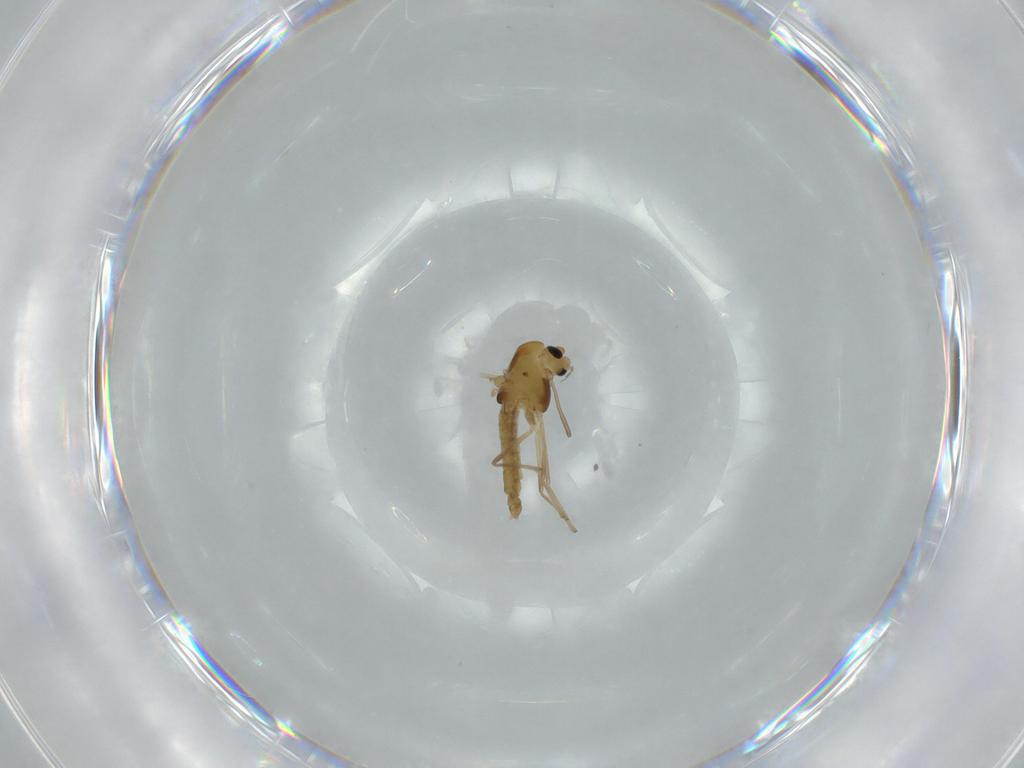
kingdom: Animalia
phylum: Arthropoda
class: Insecta
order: Diptera
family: Chironomidae
